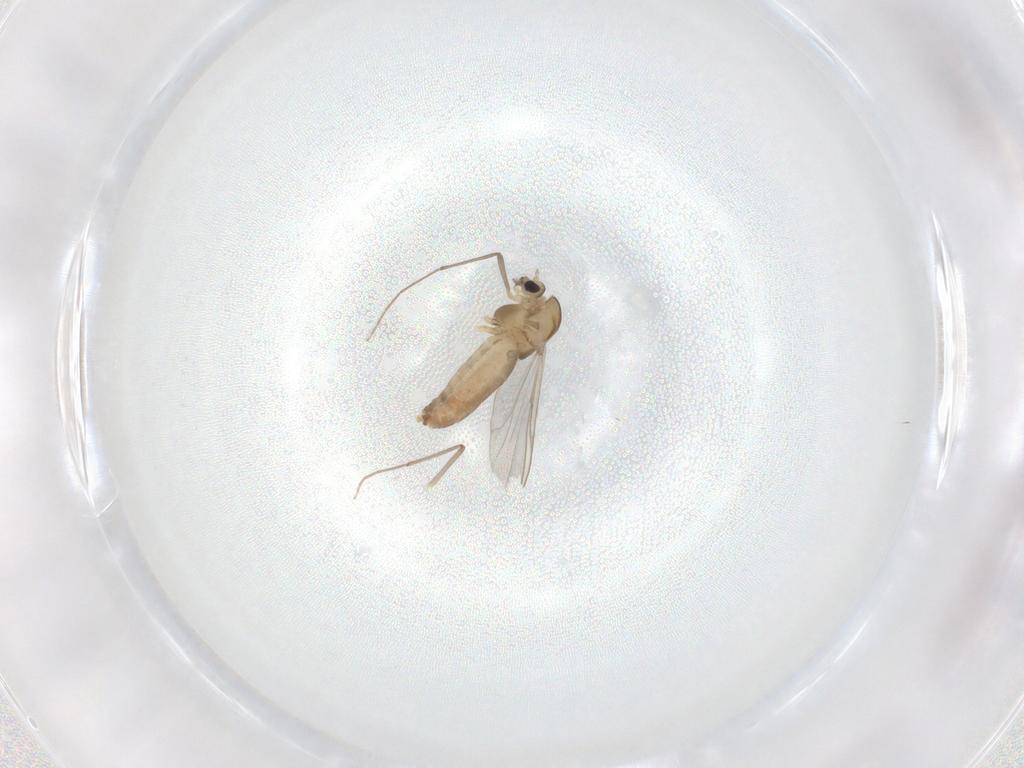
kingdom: Animalia
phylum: Arthropoda
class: Insecta
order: Diptera
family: Chironomidae
